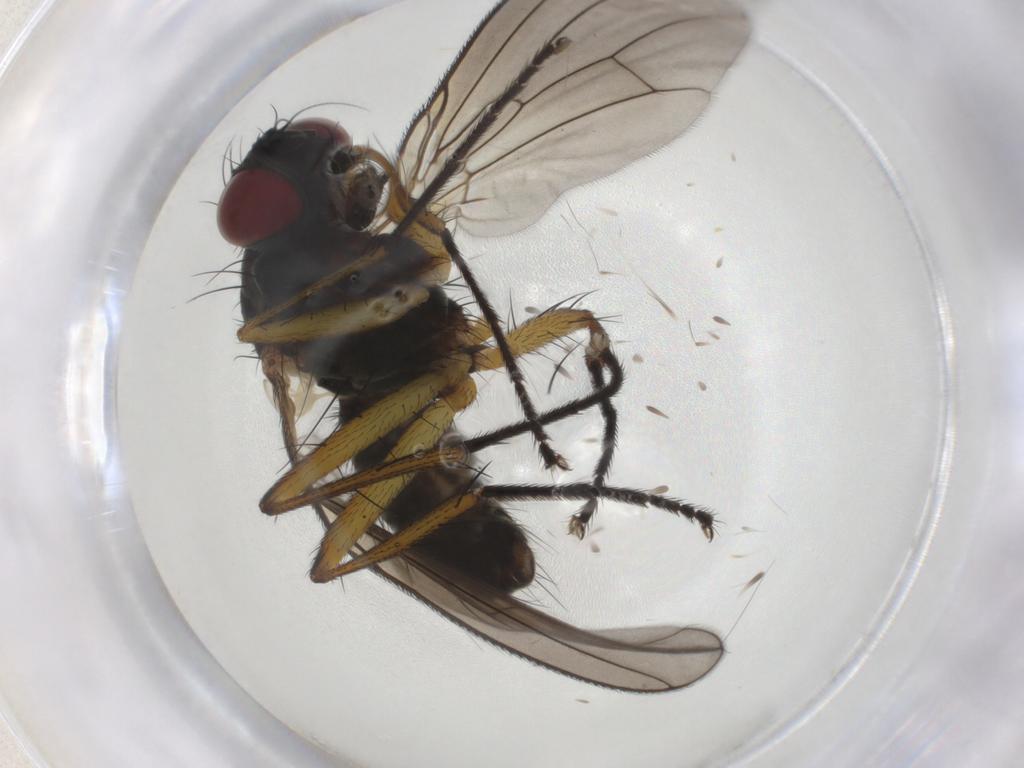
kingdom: Animalia
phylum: Arthropoda
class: Insecta
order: Diptera
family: Muscidae
